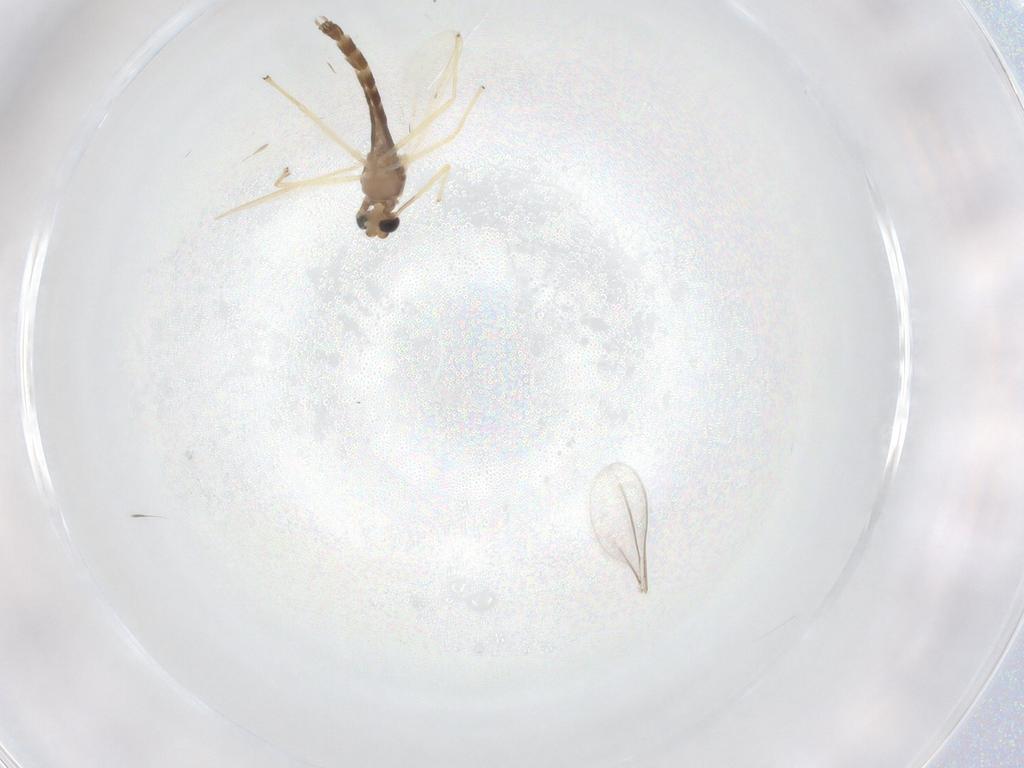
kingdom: Animalia
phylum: Arthropoda
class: Insecta
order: Diptera
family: Chironomidae
